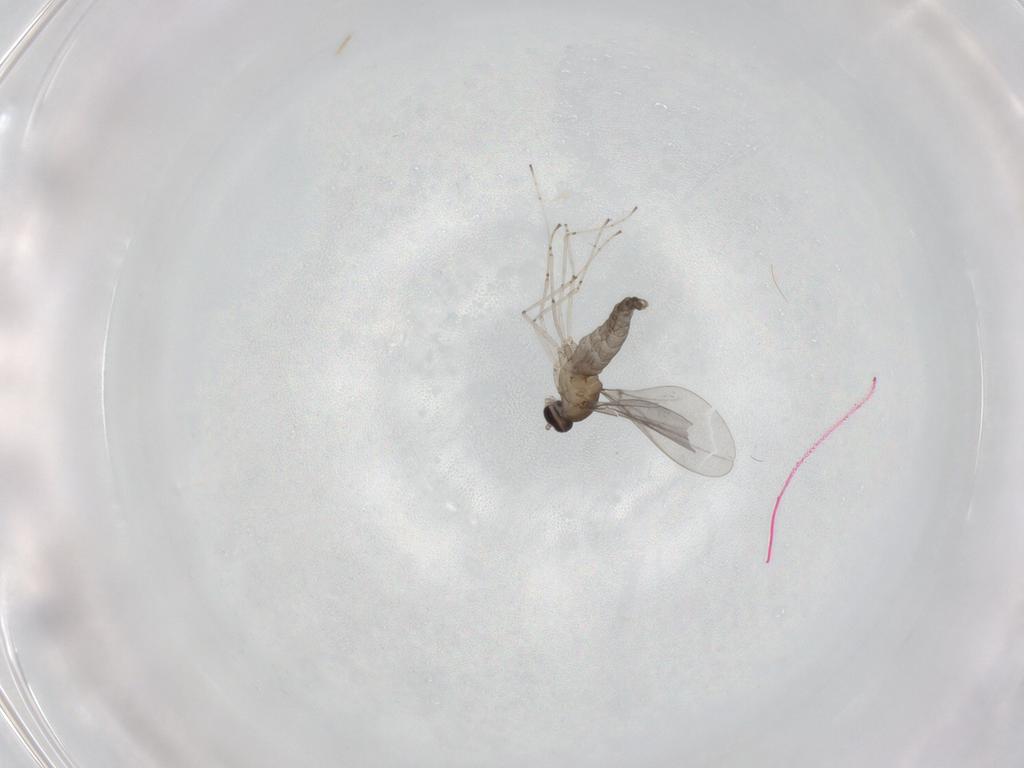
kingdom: Animalia
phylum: Arthropoda
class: Insecta
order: Diptera
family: Cecidomyiidae
